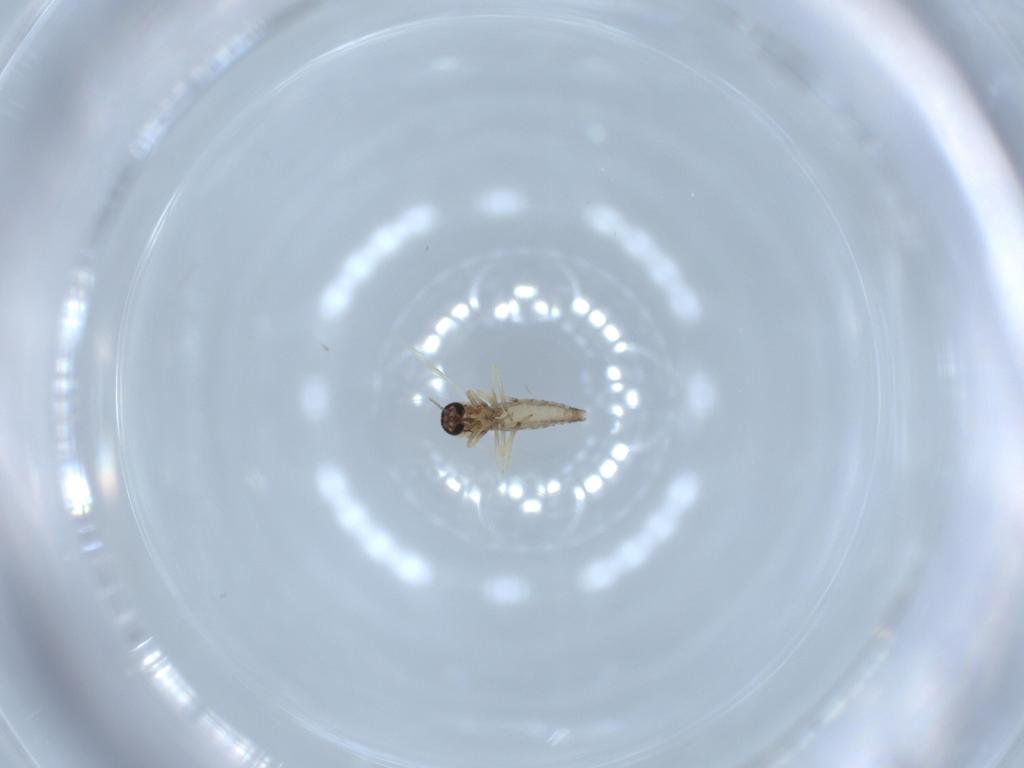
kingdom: Animalia
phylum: Arthropoda
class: Insecta
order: Diptera
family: Ceratopogonidae
